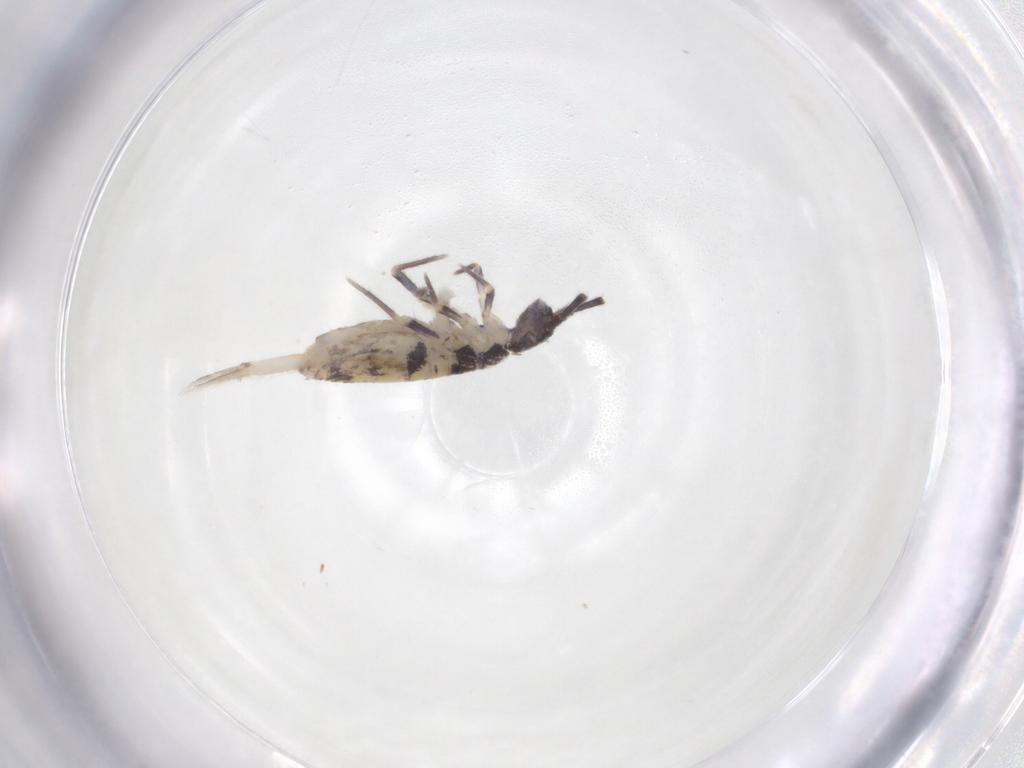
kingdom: Animalia
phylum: Arthropoda
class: Collembola
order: Entomobryomorpha
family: Entomobryidae
